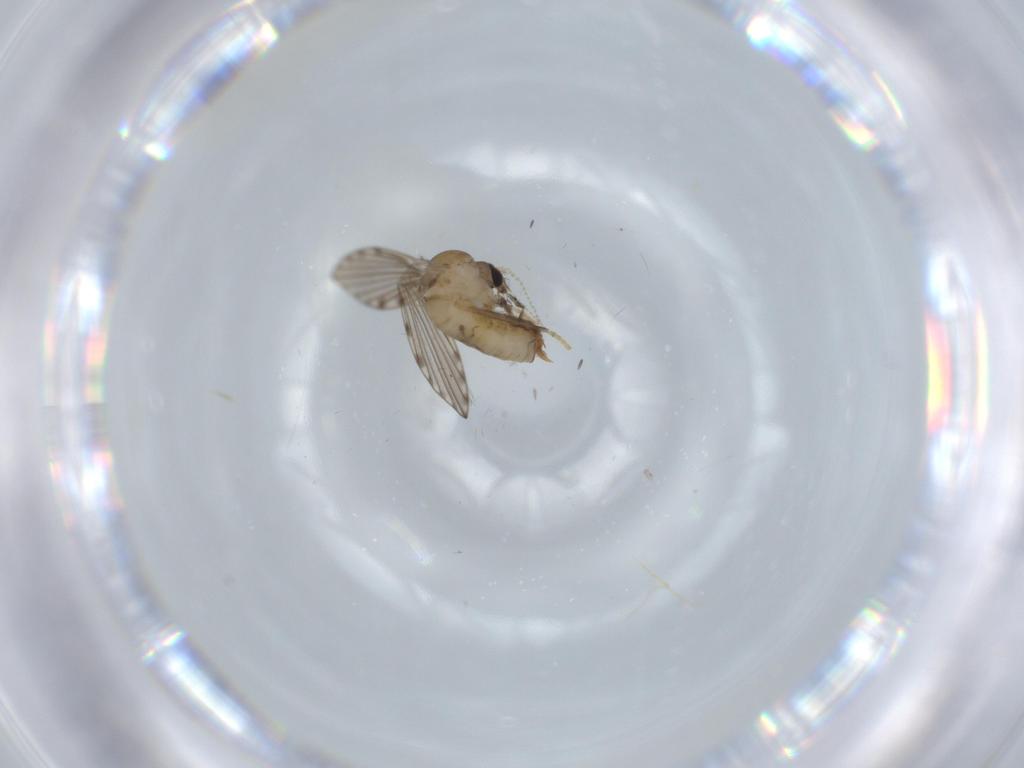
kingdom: Animalia
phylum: Arthropoda
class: Insecta
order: Diptera
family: Psychodidae
